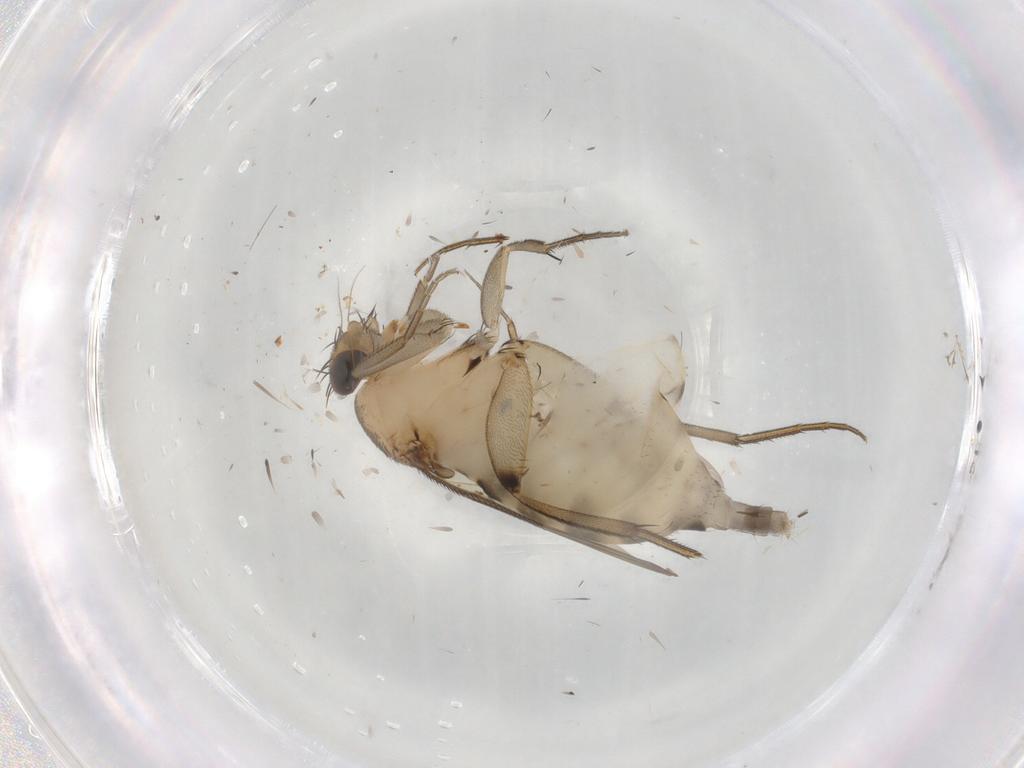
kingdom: Animalia
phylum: Arthropoda
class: Insecta
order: Diptera
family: Cecidomyiidae
